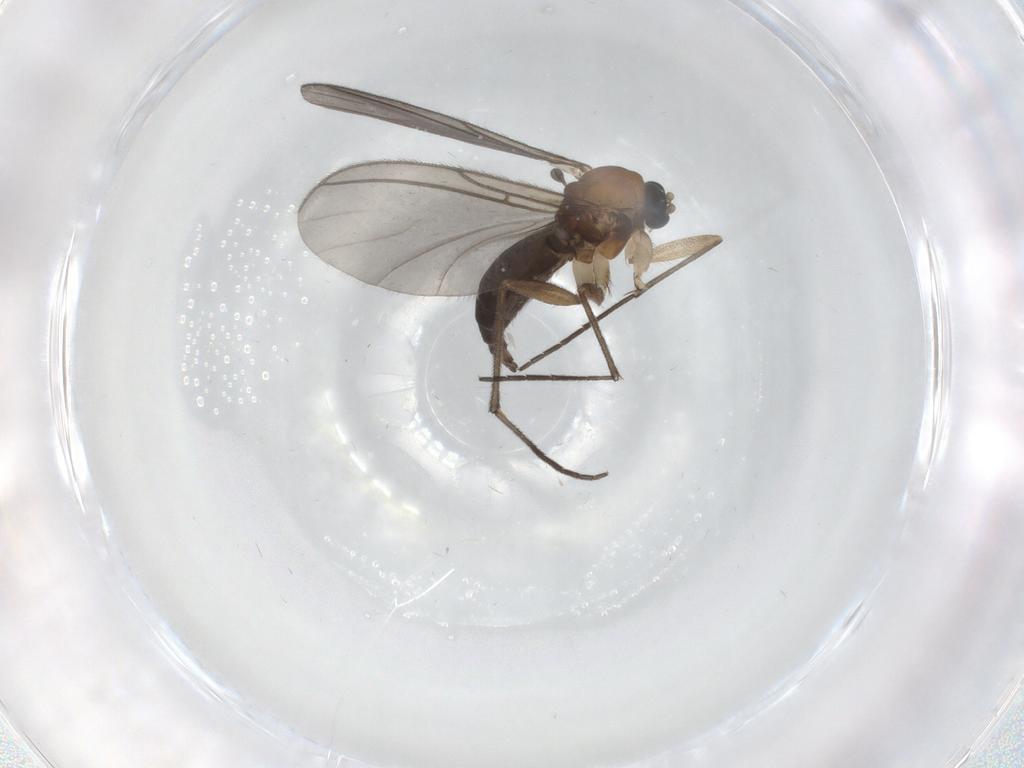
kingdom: Animalia
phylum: Arthropoda
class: Insecta
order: Diptera
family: Sciaridae
